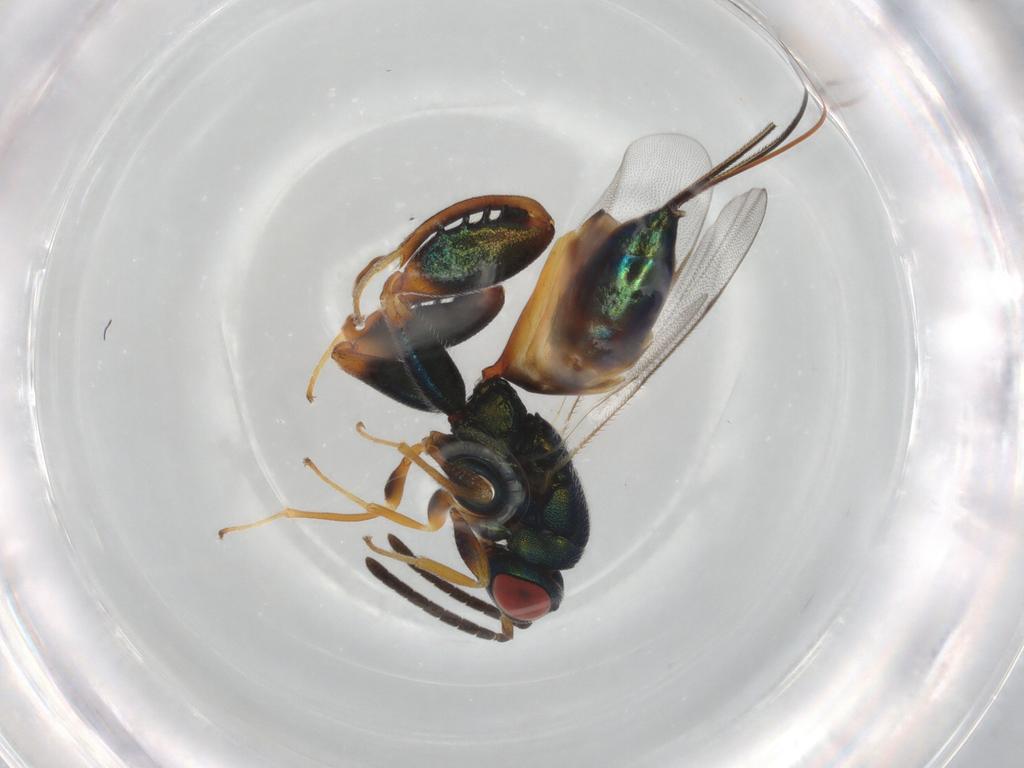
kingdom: Animalia
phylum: Arthropoda
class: Insecta
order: Hymenoptera
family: Torymidae
